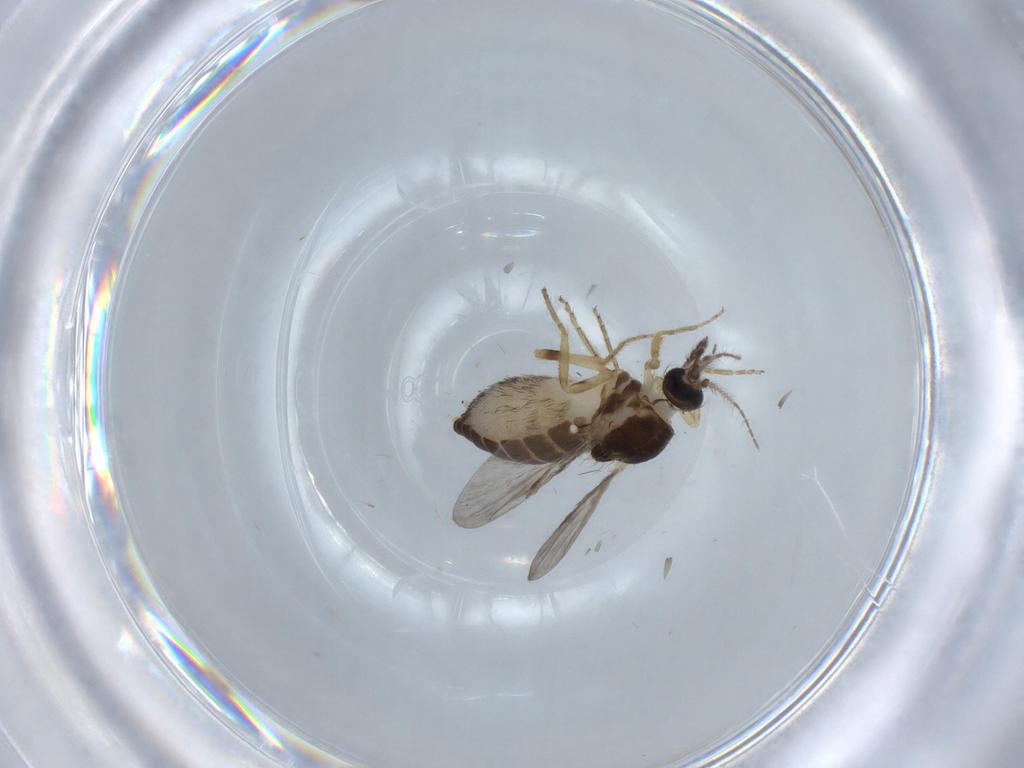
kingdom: Animalia
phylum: Arthropoda
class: Insecta
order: Diptera
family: Ceratopogonidae
